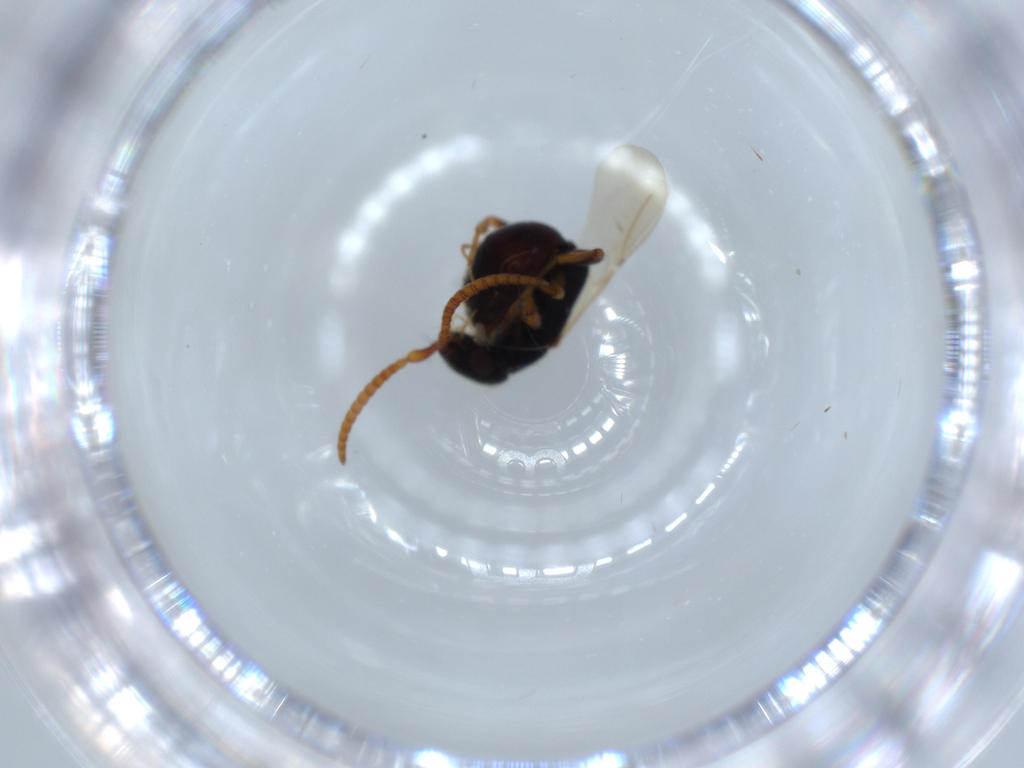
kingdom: Animalia
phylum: Arthropoda
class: Insecta
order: Hymenoptera
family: Bethylidae
